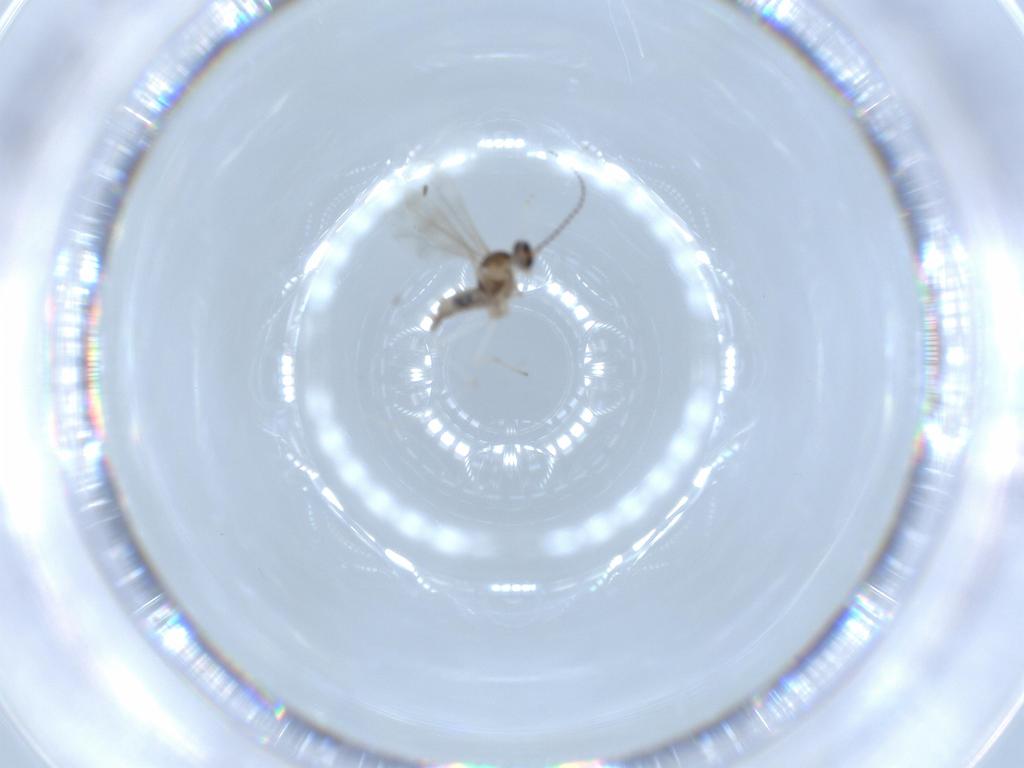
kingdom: Animalia
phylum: Arthropoda
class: Insecta
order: Diptera
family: Cecidomyiidae
